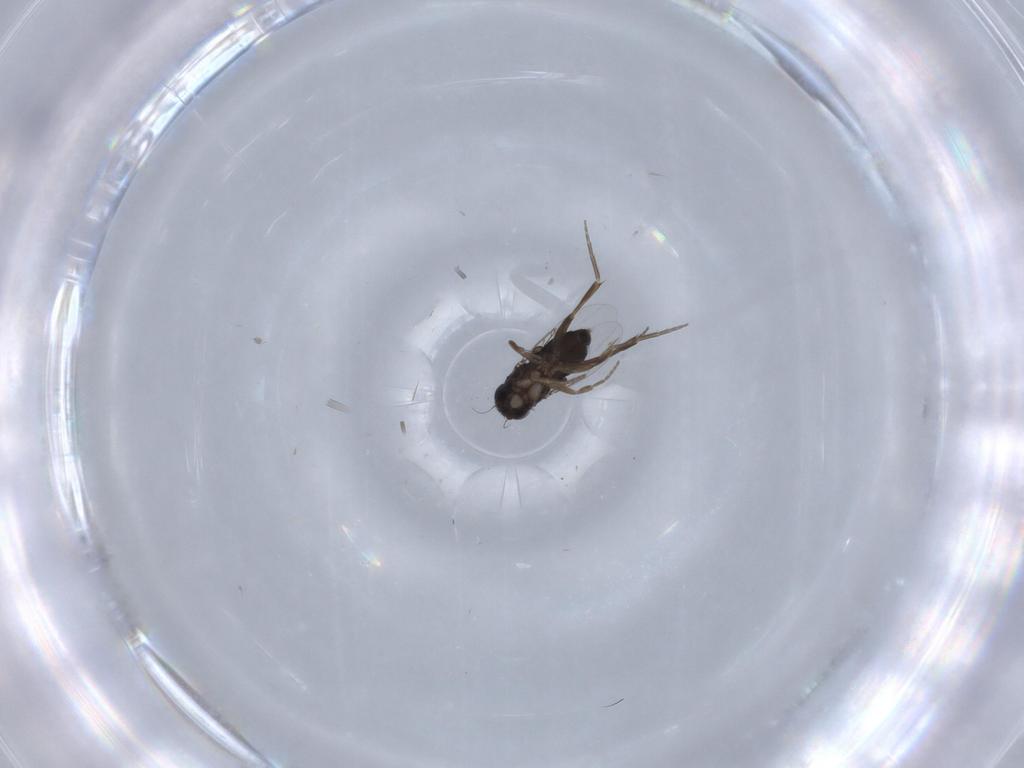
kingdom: Animalia
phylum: Arthropoda
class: Insecta
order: Diptera
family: Phoridae
